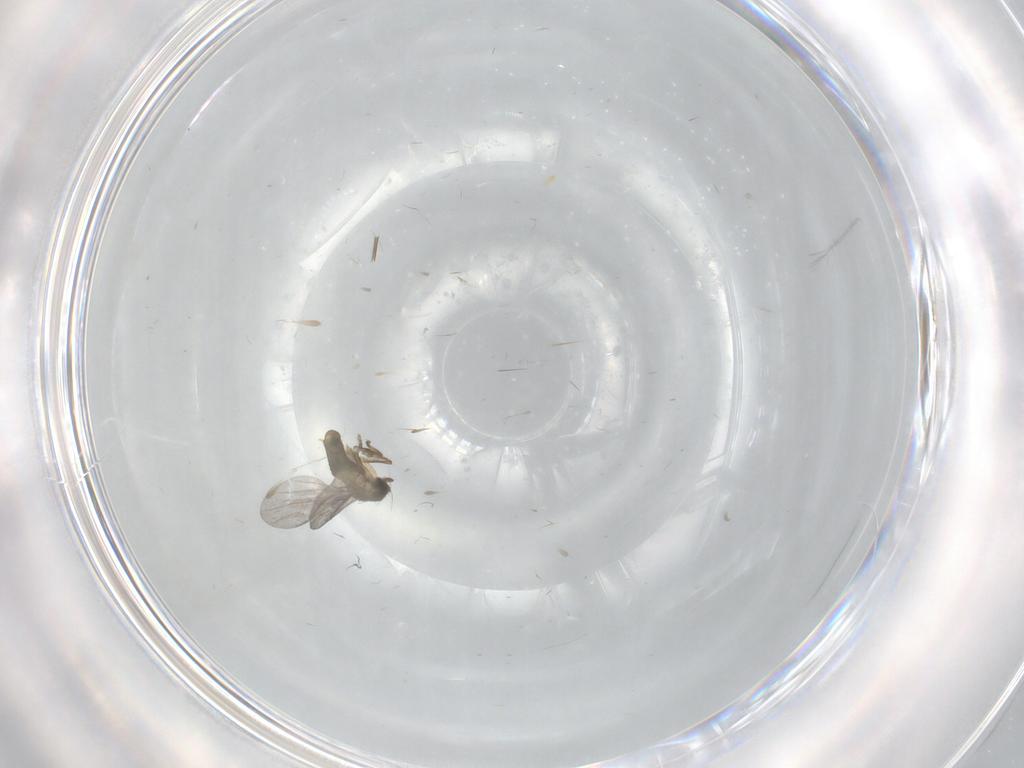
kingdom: Animalia
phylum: Arthropoda
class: Insecta
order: Diptera
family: Phoridae
